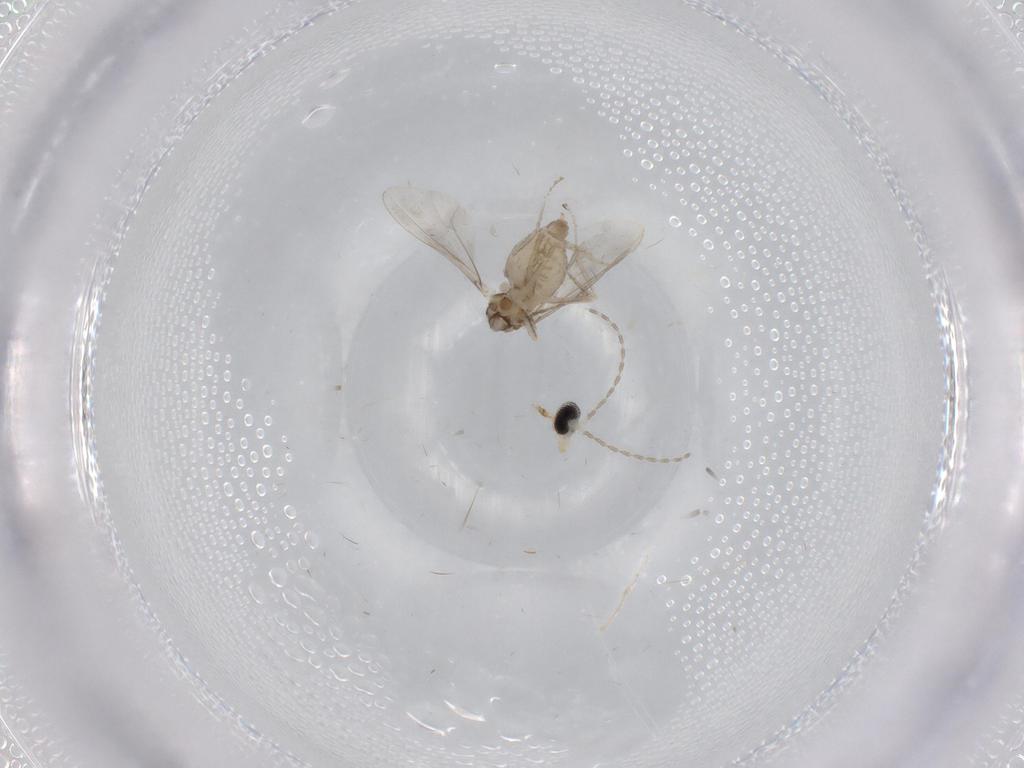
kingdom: Animalia
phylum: Arthropoda
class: Insecta
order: Diptera
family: Cecidomyiidae
